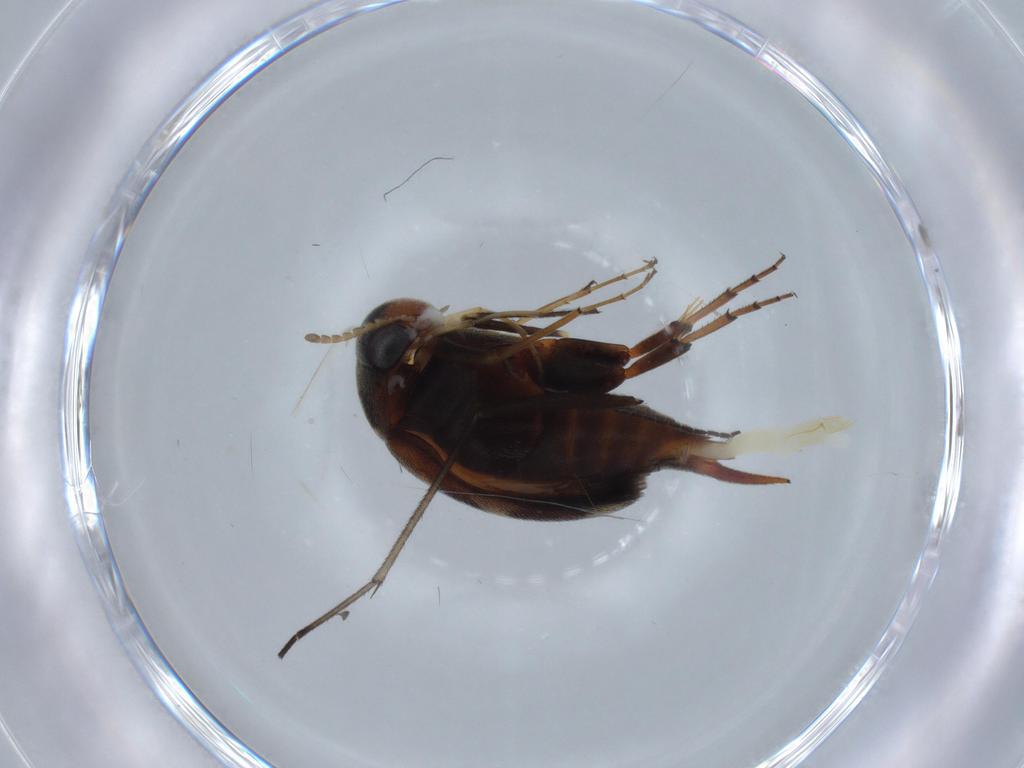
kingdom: Animalia
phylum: Arthropoda
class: Insecta
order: Coleoptera
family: Mordellidae
